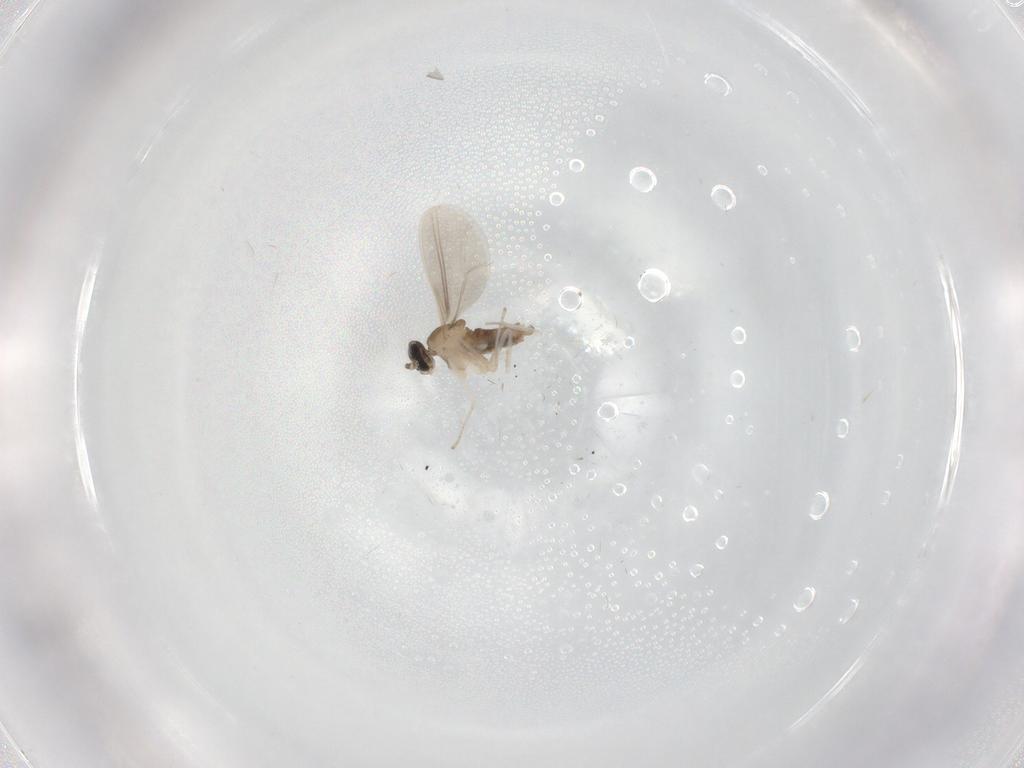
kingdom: Animalia
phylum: Arthropoda
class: Insecta
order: Diptera
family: Cecidomyiidae
